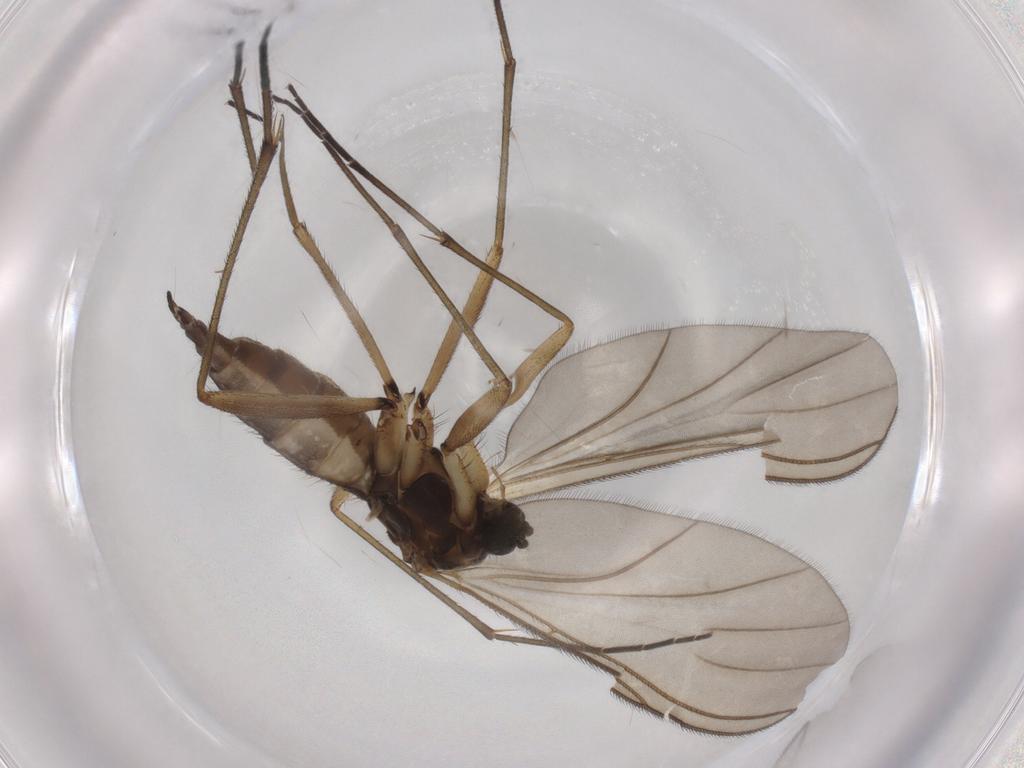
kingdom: Animalia
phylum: Arthropoda
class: Insecta
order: Diptera
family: Sciaridae
